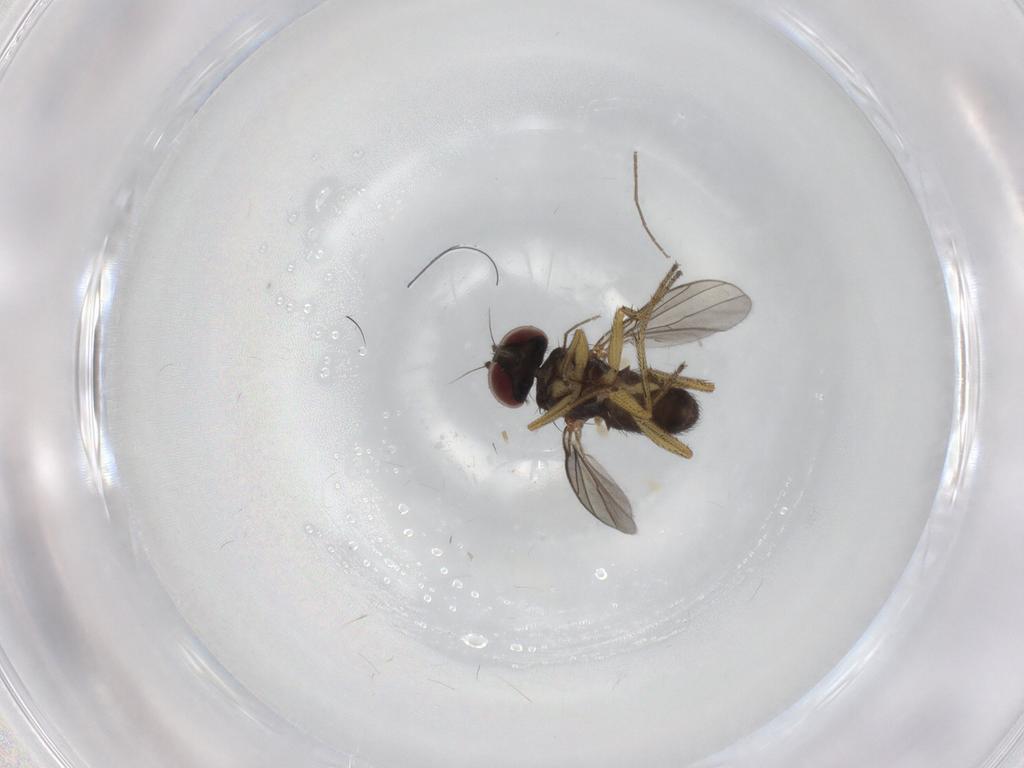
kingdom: Animalia
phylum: Arthropoda
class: Insecta
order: Diptera
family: Dolichopodidae
